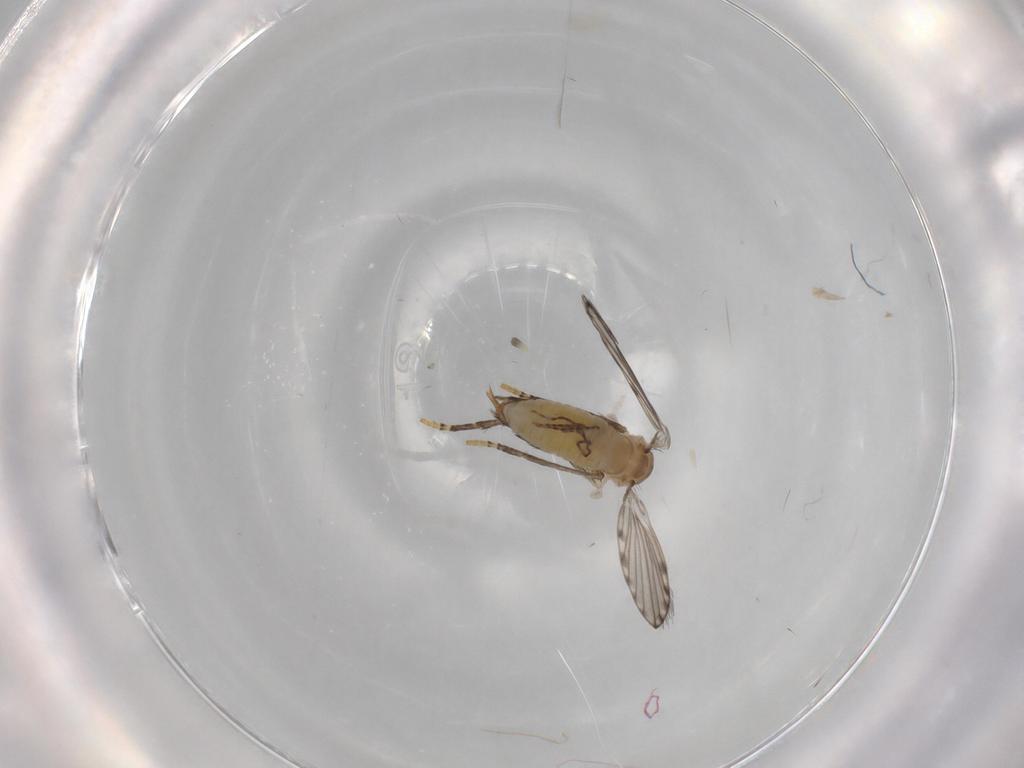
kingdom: Animalia
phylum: Arthropoda
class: Insecta
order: Diptera
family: Psychodidae
